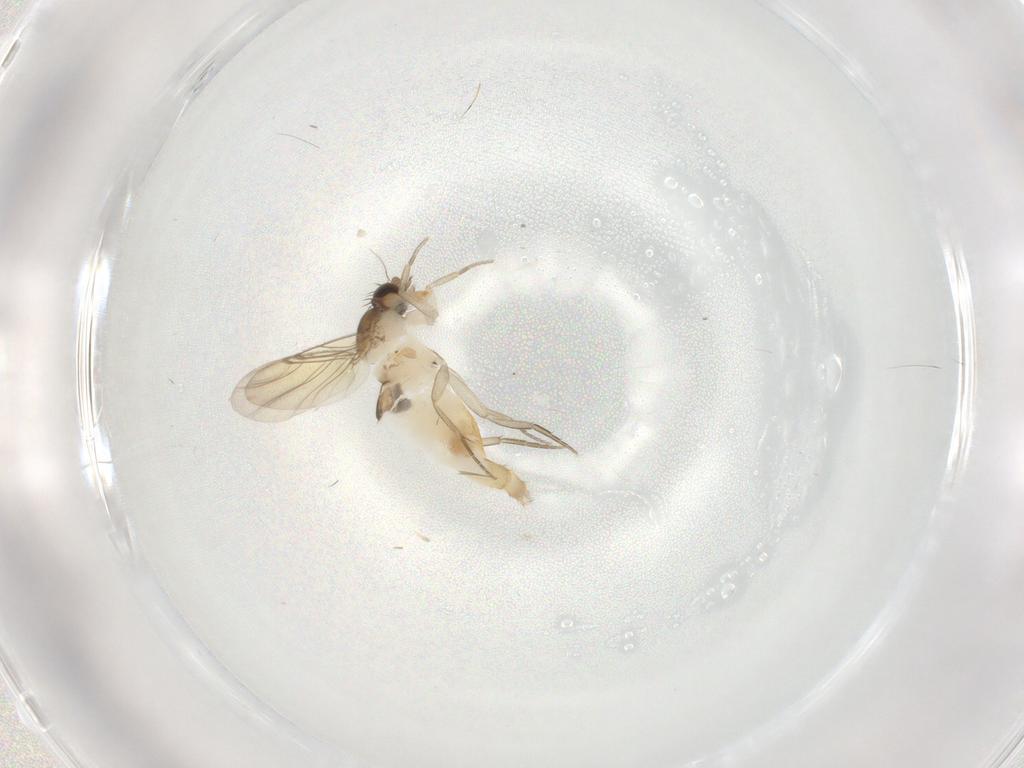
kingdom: Animalia
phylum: Arthropoda
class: Insecta
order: Diptera
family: Phoridae
